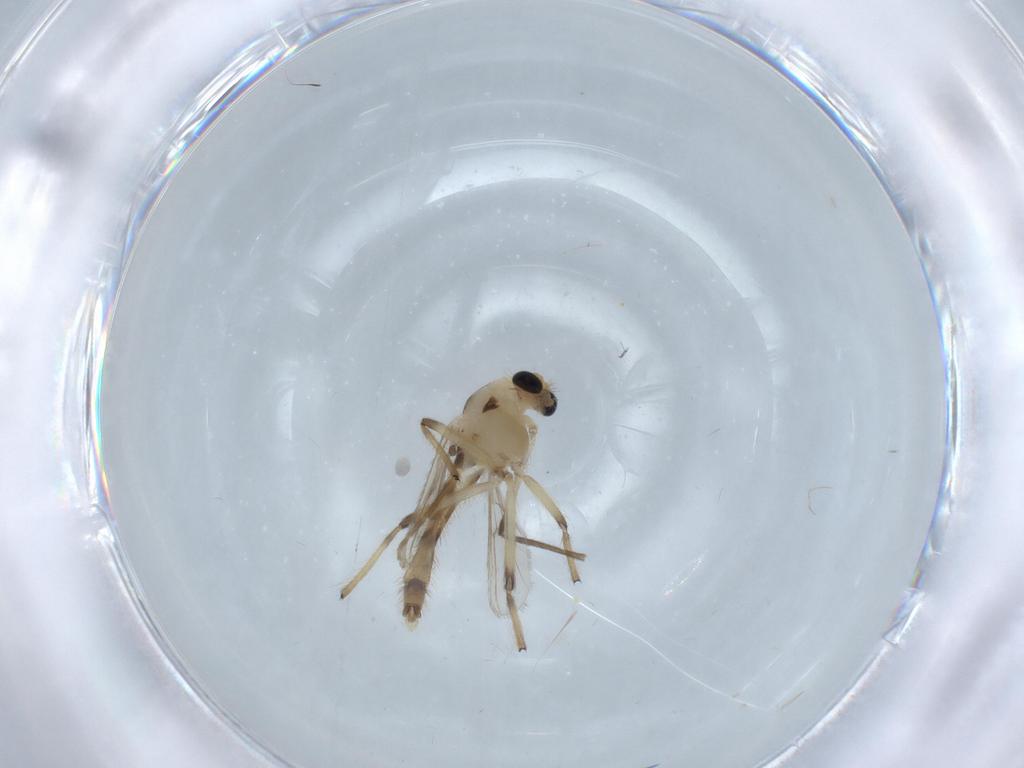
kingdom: Animalia
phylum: Arthropoda
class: Insecta
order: Diptera
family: Chironomidae
